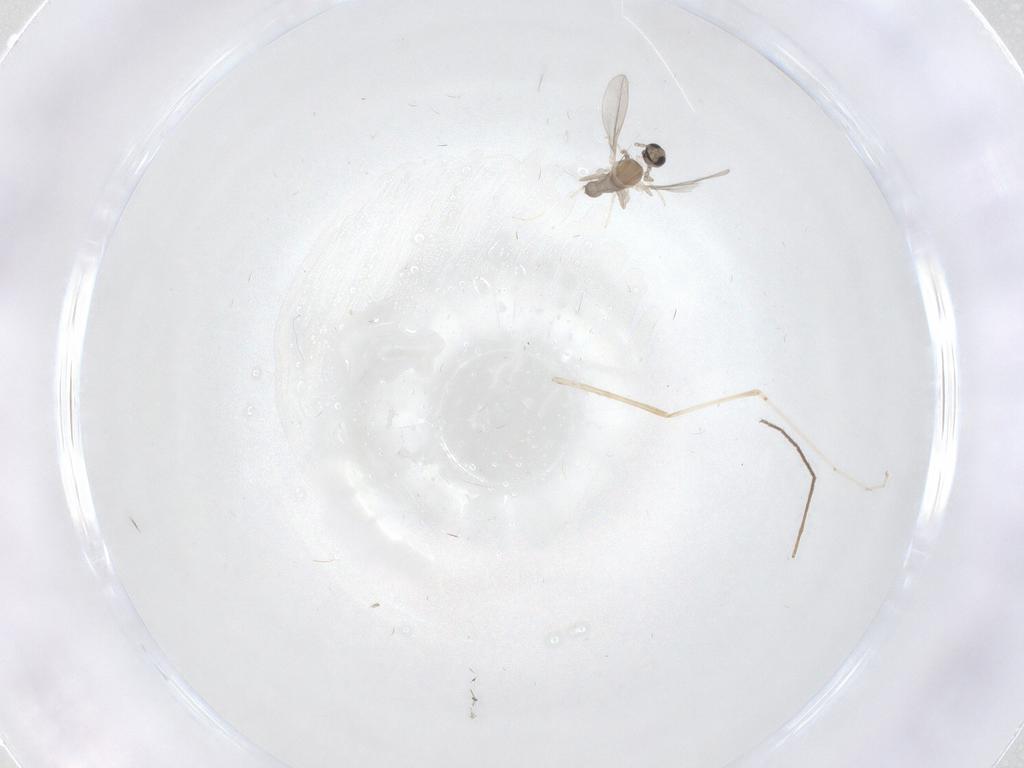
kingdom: Animalia
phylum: Arthropoda
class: Insecta
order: Diptera
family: Cecidomyiidae
